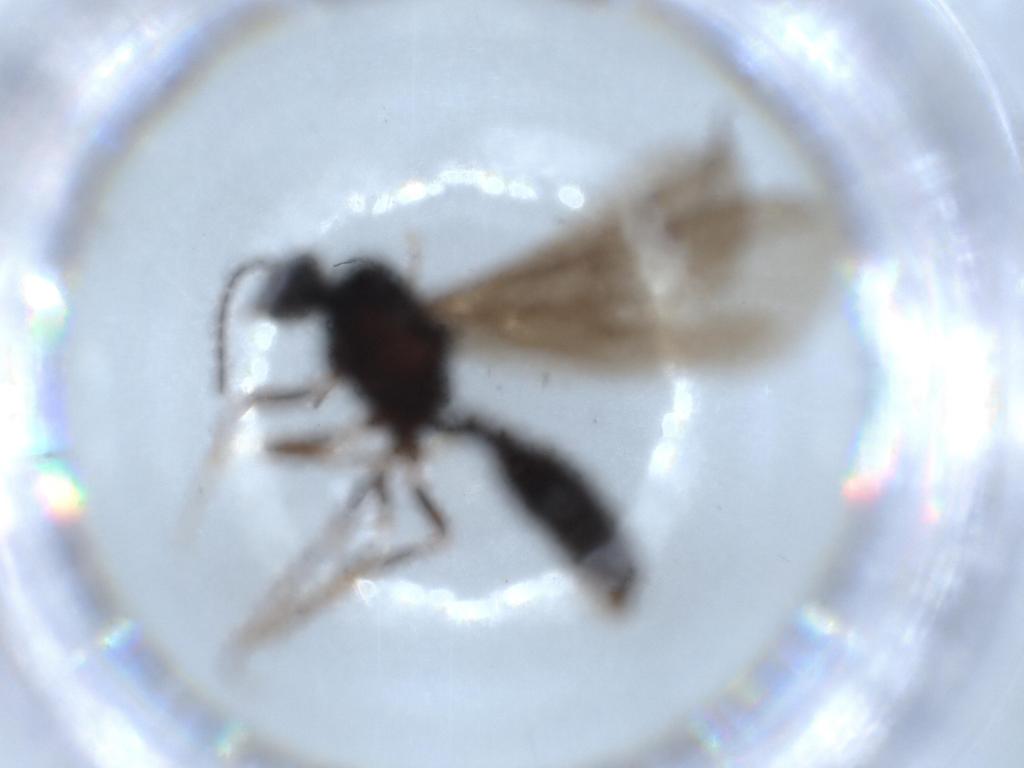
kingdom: Animalia
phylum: Arthropoda
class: Insecta
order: Hymenoptera
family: Formicidae
